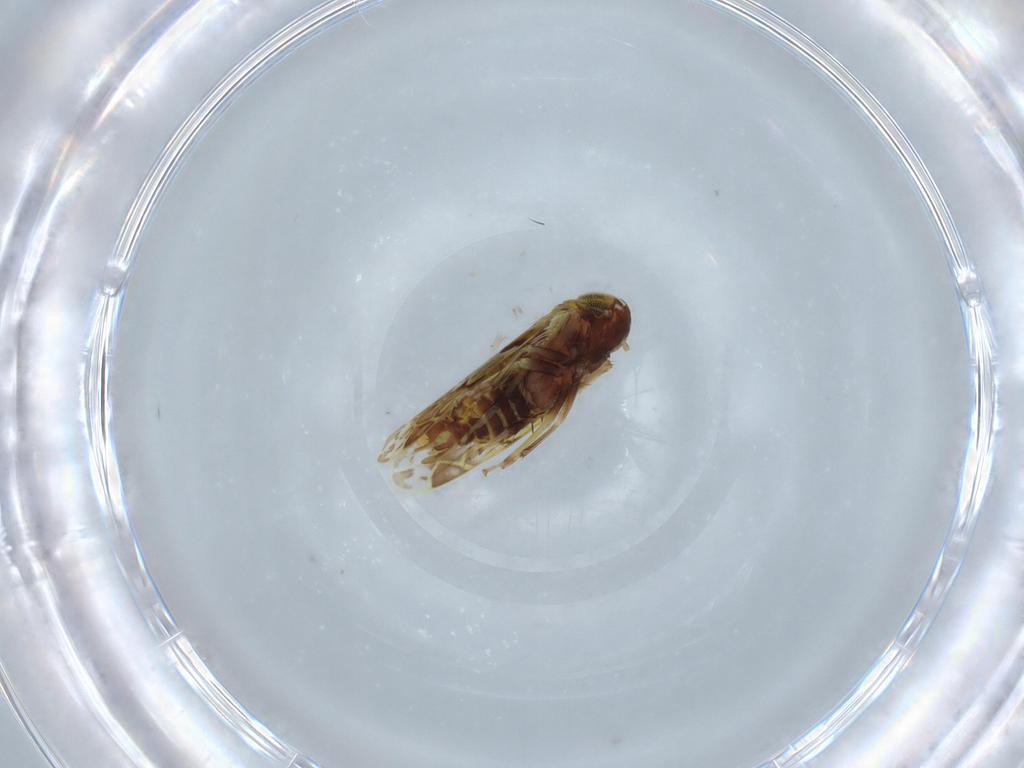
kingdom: Animalia
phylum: Arthropoda
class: Insecta
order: Hemiptera
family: Cicadellidae
